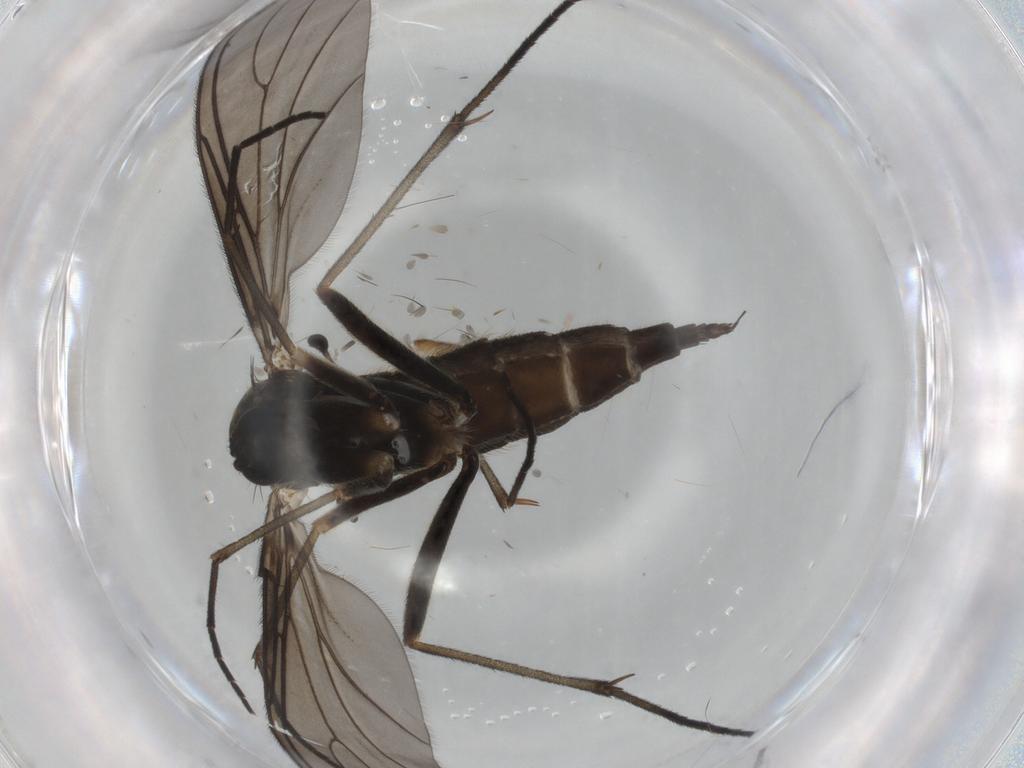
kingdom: Animalia
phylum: Arthropoda
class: Insecta
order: Diptera
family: Sciaridae
